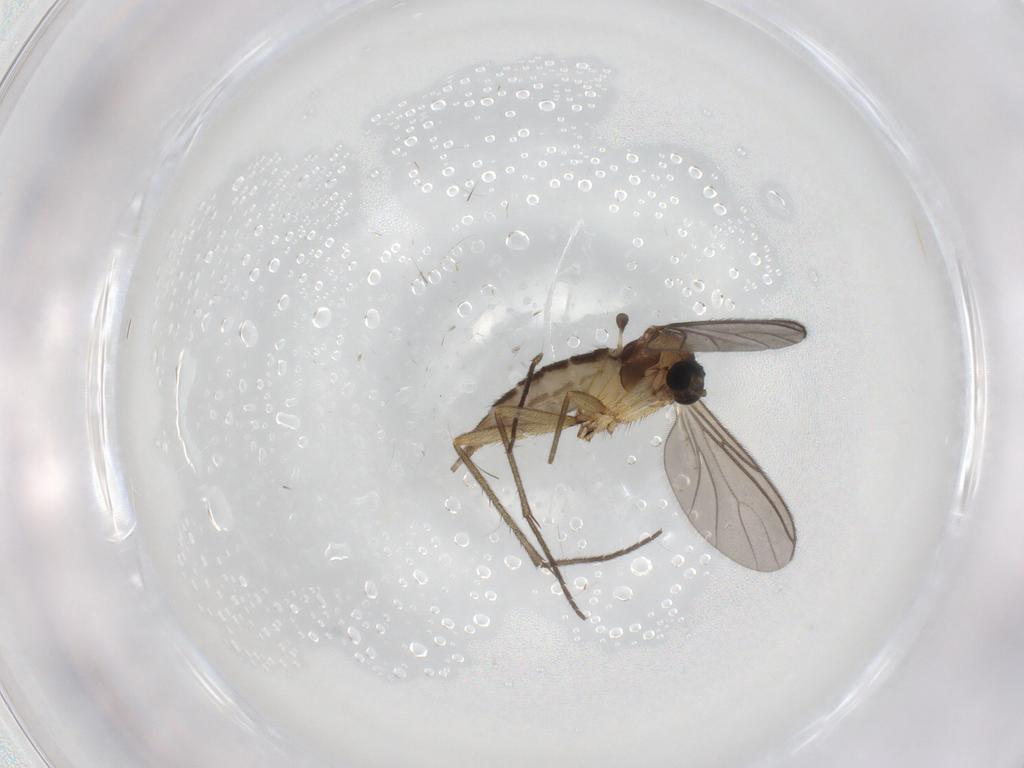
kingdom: Animalia
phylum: Arthropoda
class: Insecta
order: Diptera
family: Sciaridae
